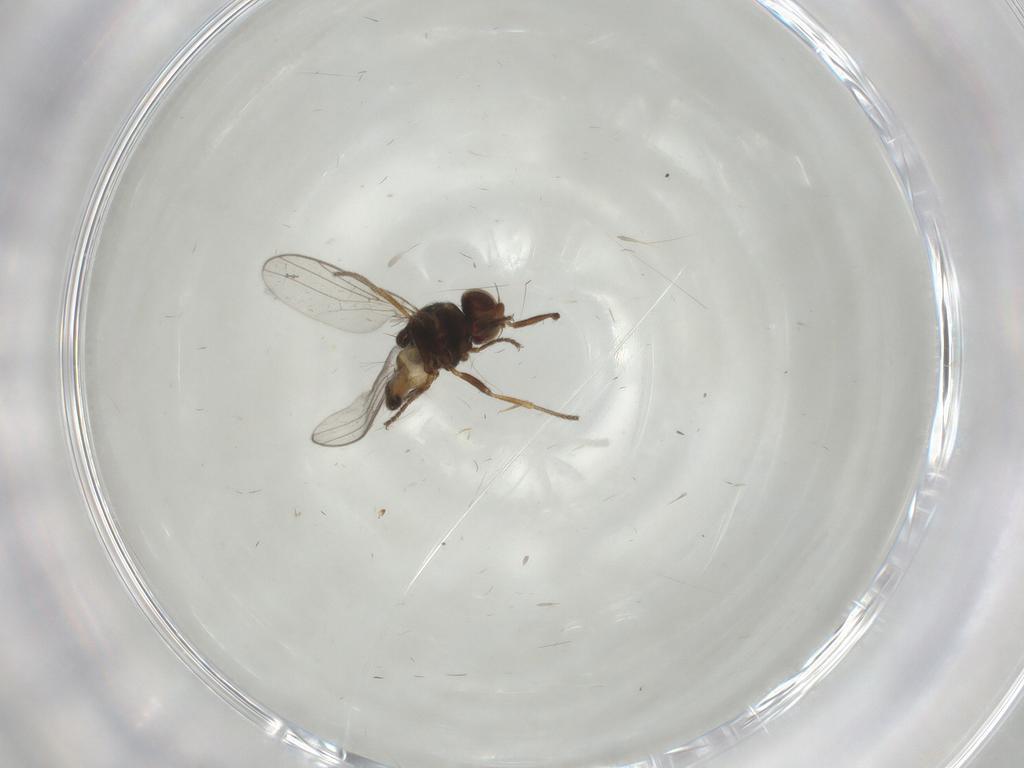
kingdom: Animalia
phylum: Arthropoda
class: Insecta
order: Diptera
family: Chloropidae
